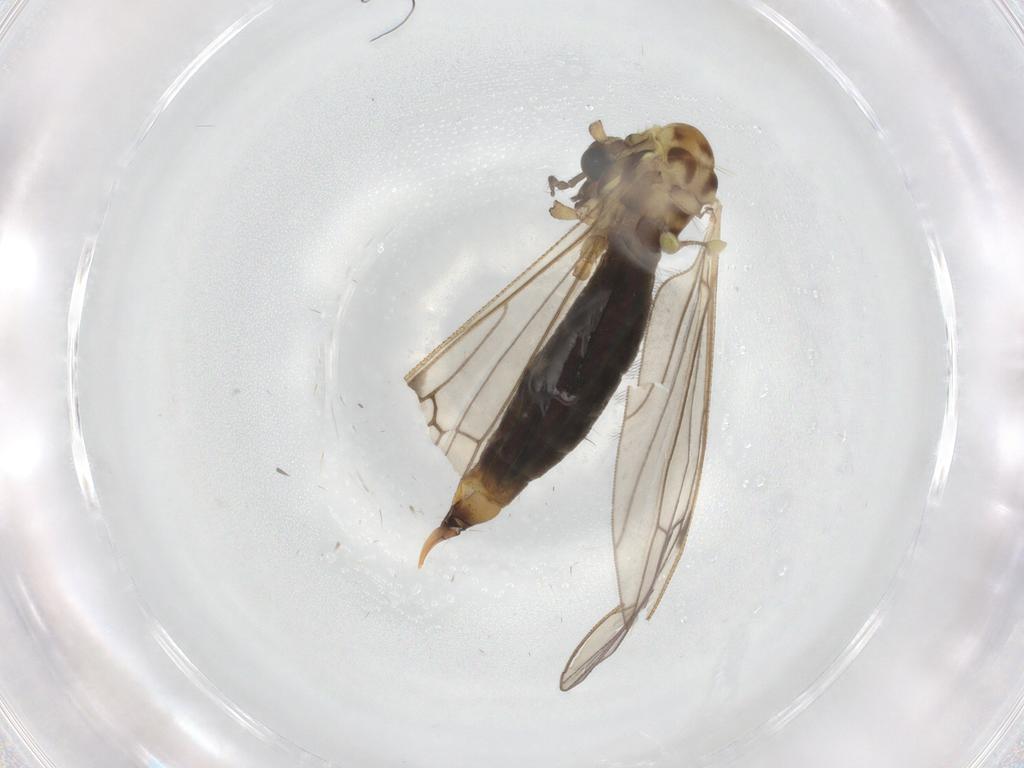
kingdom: Animalia
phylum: Arthropoda
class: Insecta
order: Diptera
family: Limoniidae
